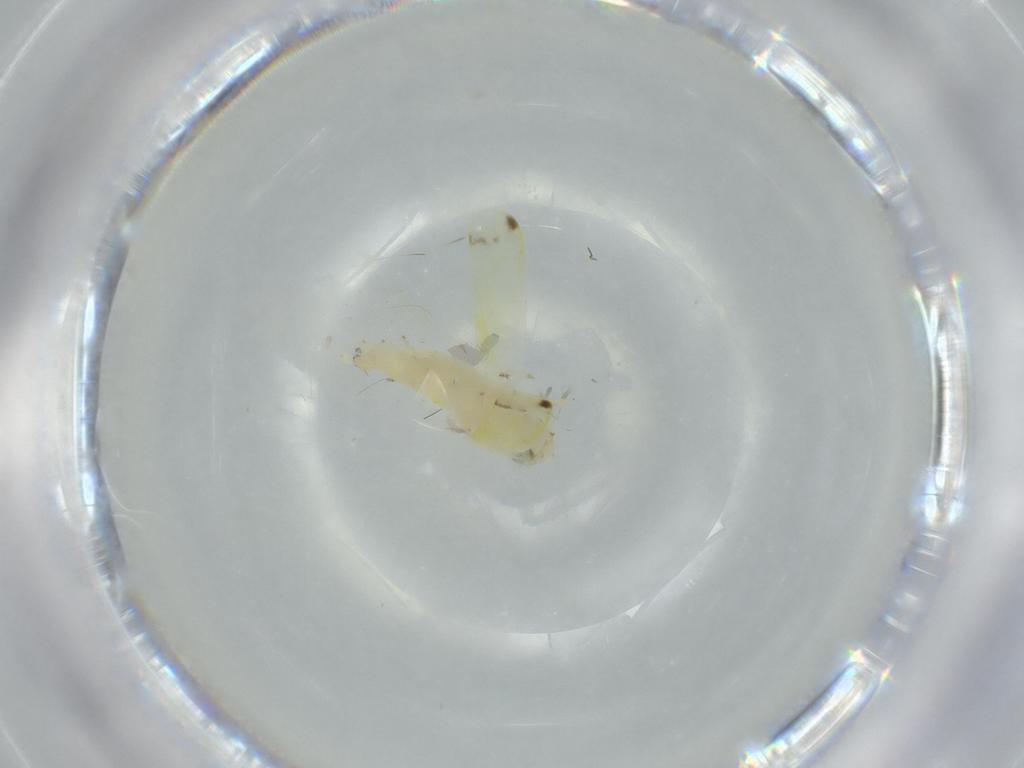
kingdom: Animalia
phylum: Arthropoda
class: Insecta
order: Hemiptera
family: Cicadellidae
